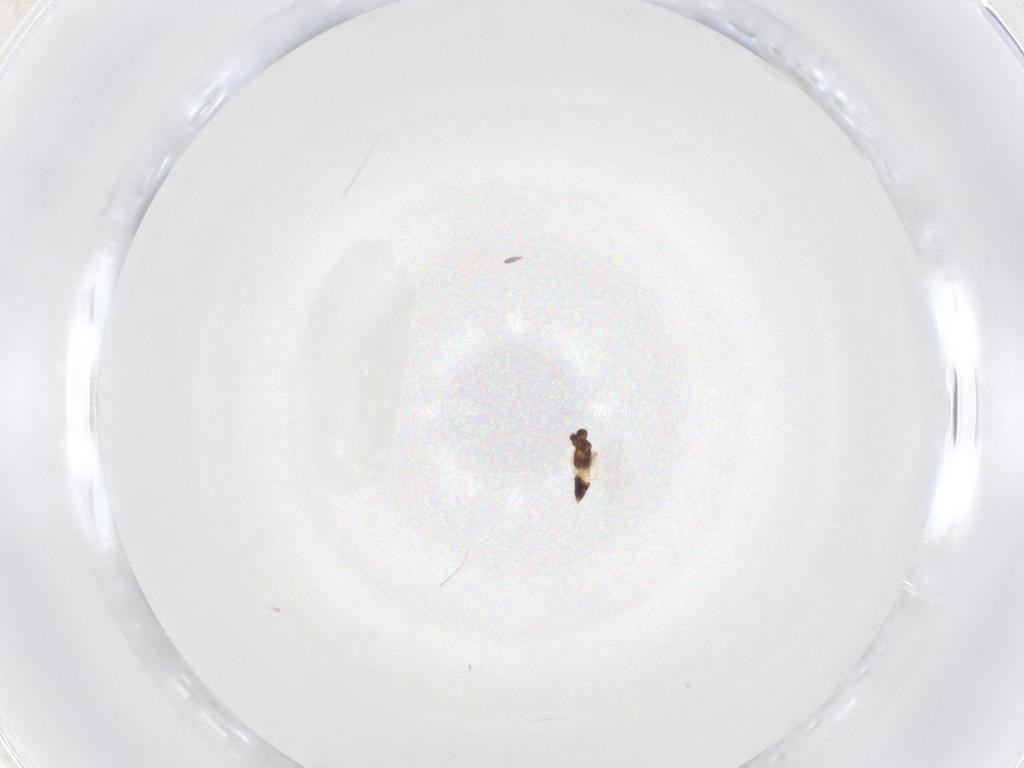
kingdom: Animalia
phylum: Arthropoda
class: Insecta
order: Hymenoptera
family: Mymaridae
